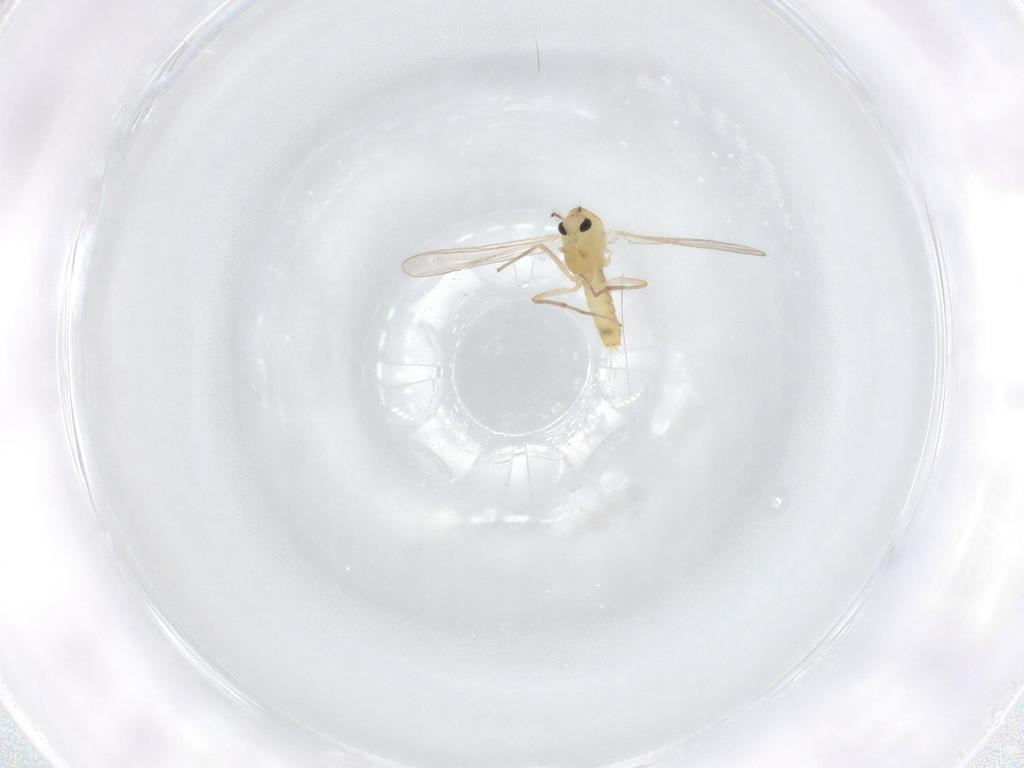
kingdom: Animalia
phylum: Arthropoda
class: Insecta
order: Diptera
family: Chironomidae
